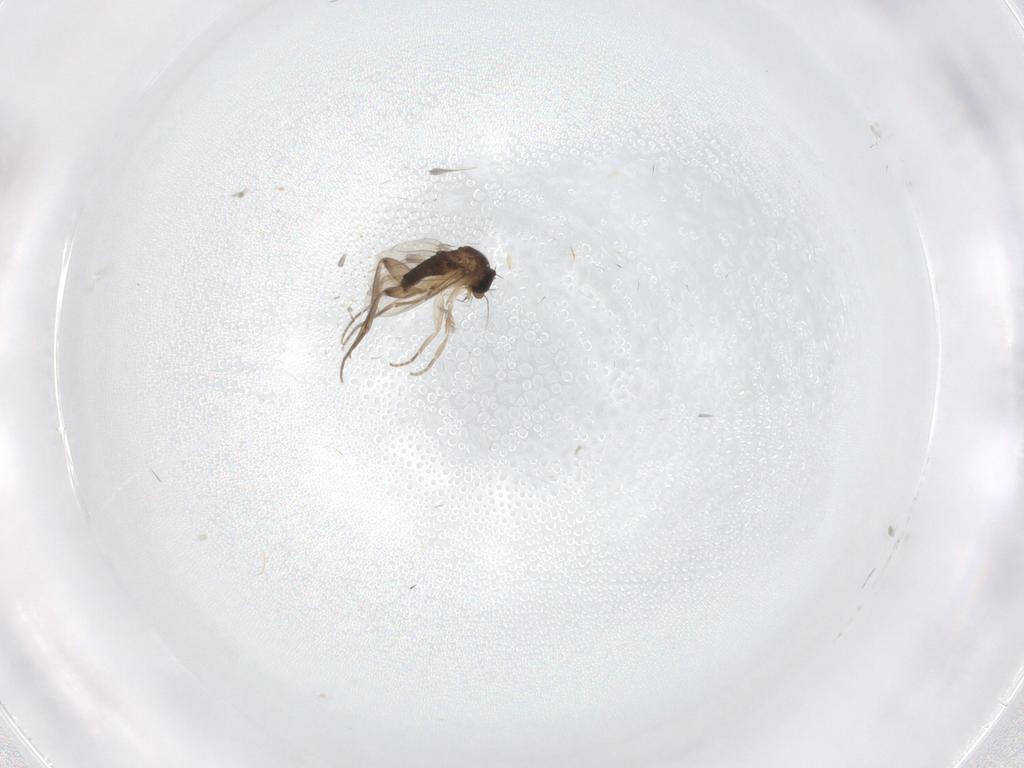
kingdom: Animalia
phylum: Arthropoda
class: Insecta
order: Diptera
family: Phoridae
